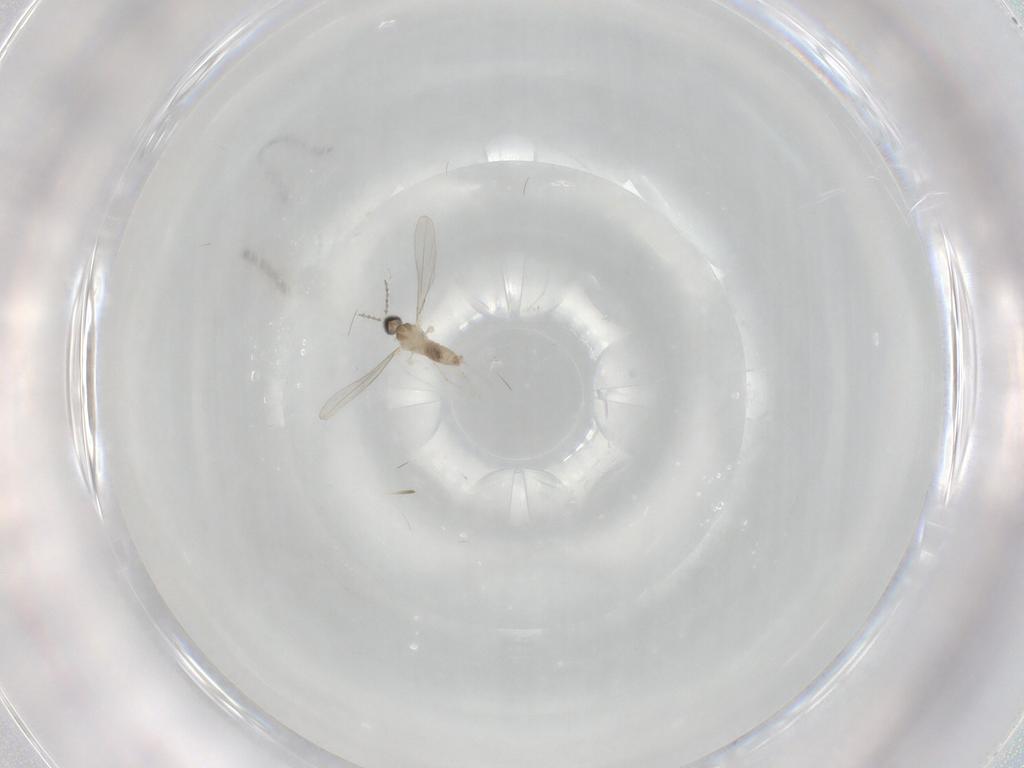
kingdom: Animalia
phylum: Arthropoda
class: Insecta
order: Diptera
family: Cecidomyiidae
